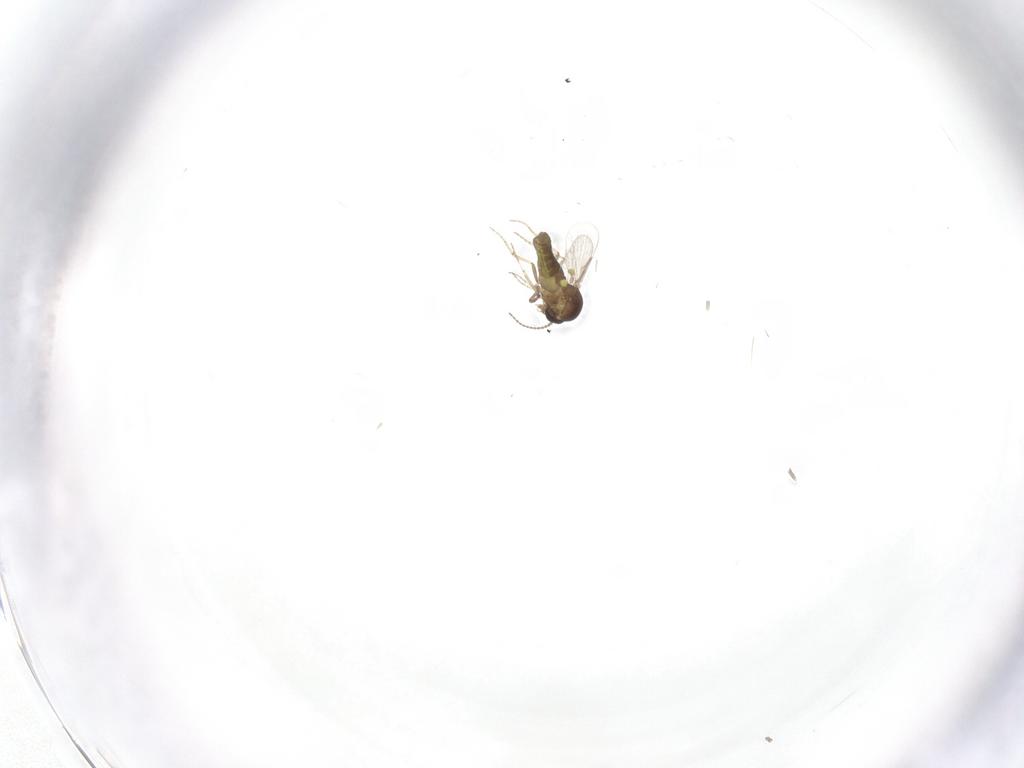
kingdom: Animalia
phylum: Arthropoda
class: Insecta
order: Diptera
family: Ceratopogonidae
